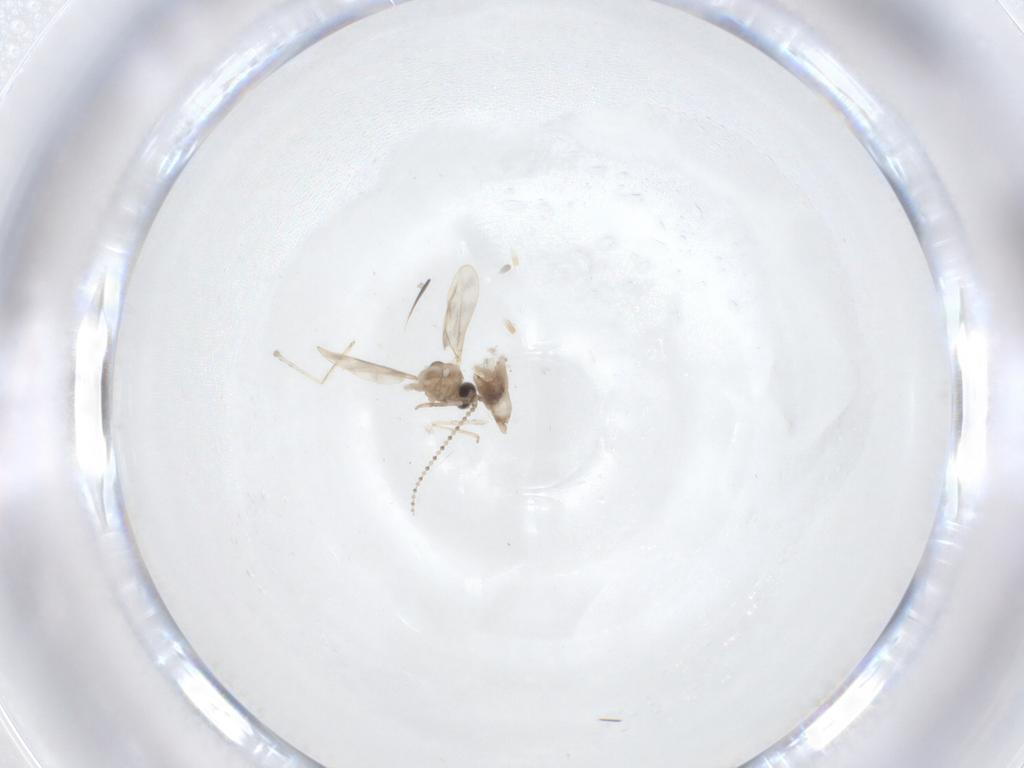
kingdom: Animalia
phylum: Arthropoda
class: Insecta
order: Diptera
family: Cecidomyiidae
